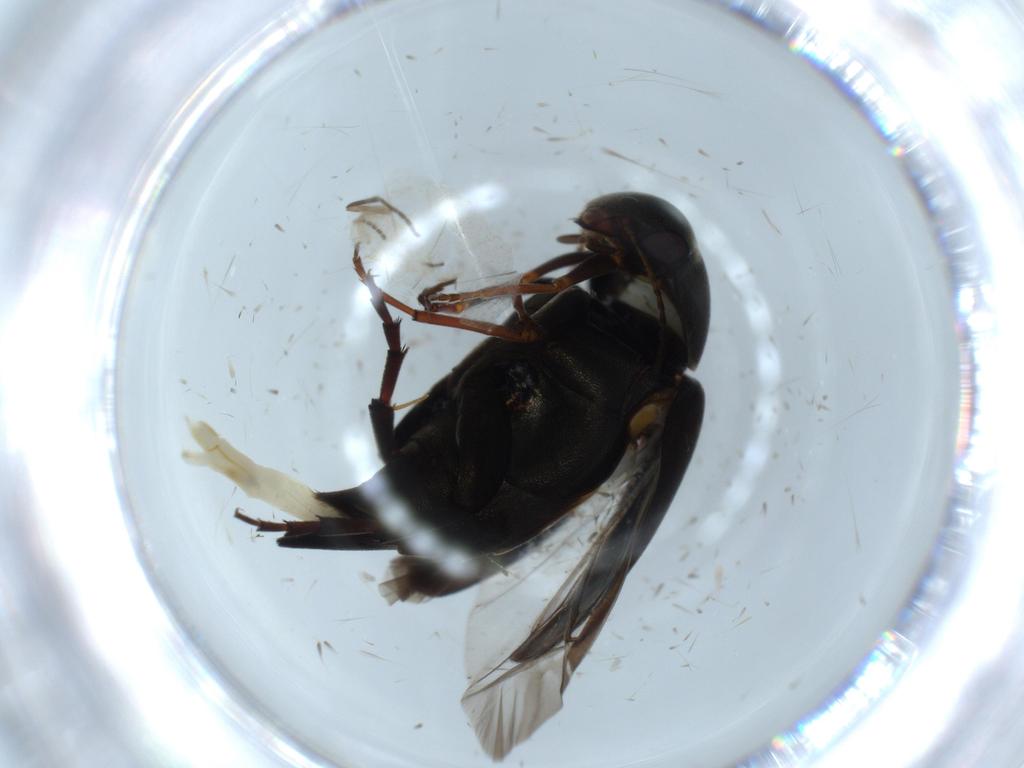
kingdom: Animalia
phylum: Arthropoda
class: Insecta
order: Coleoptera
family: Mordellidae
